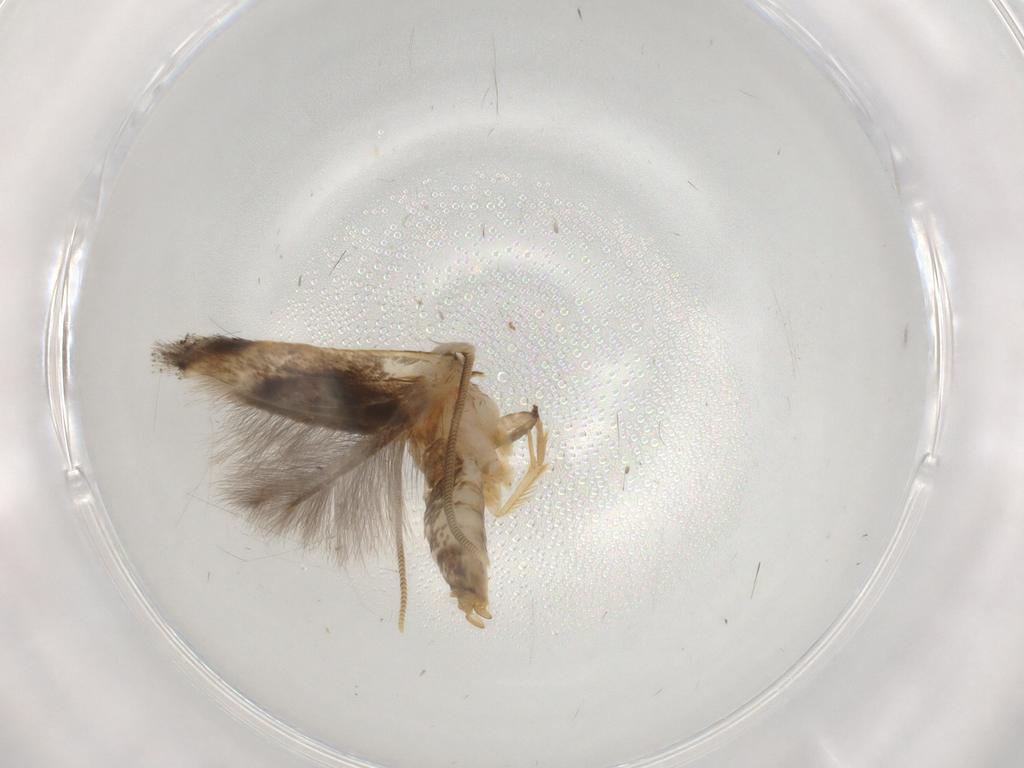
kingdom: Animalia
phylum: Arthropoda
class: Insecta
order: Lepidoptera
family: Opostegidae
